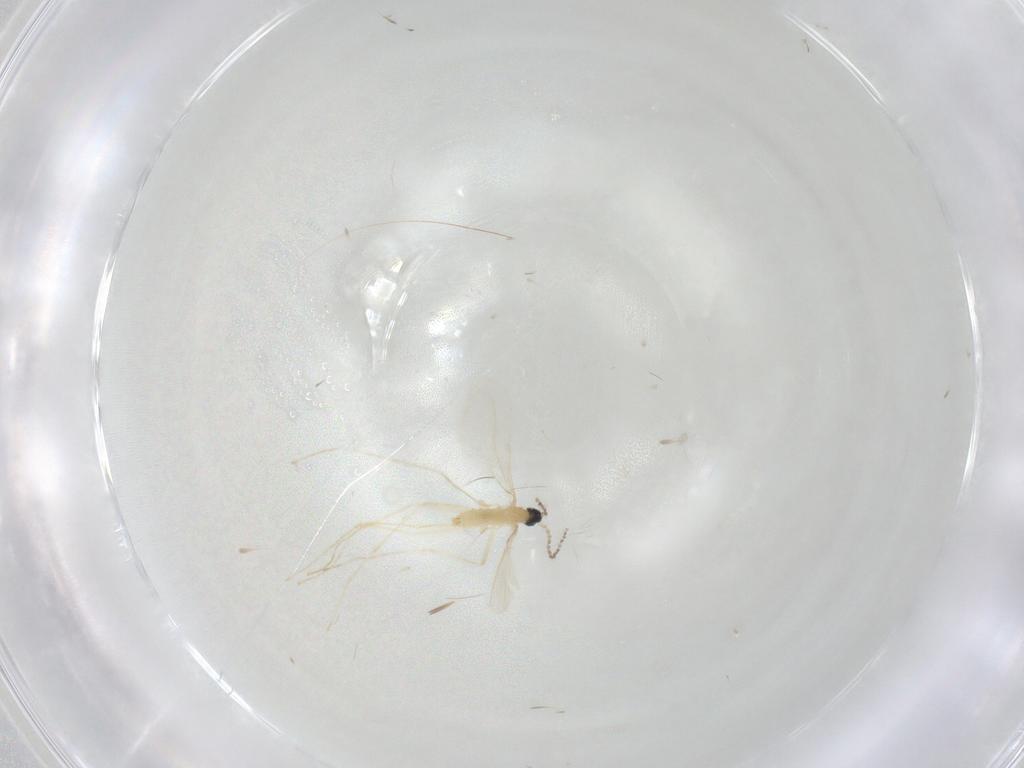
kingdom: Animalia
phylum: Arthropoda
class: Insecta
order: Diptera
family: Cecidomyiidae
